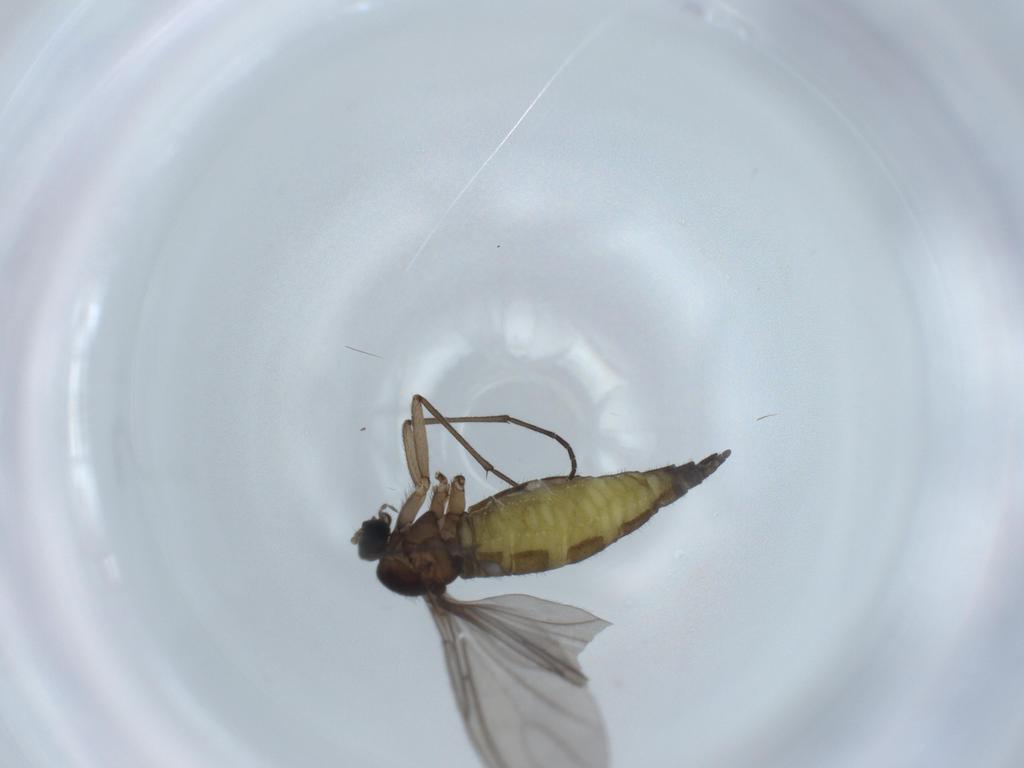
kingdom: Animalia
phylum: Arthropoda
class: Insecta
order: Diptera
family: Sciaridae
